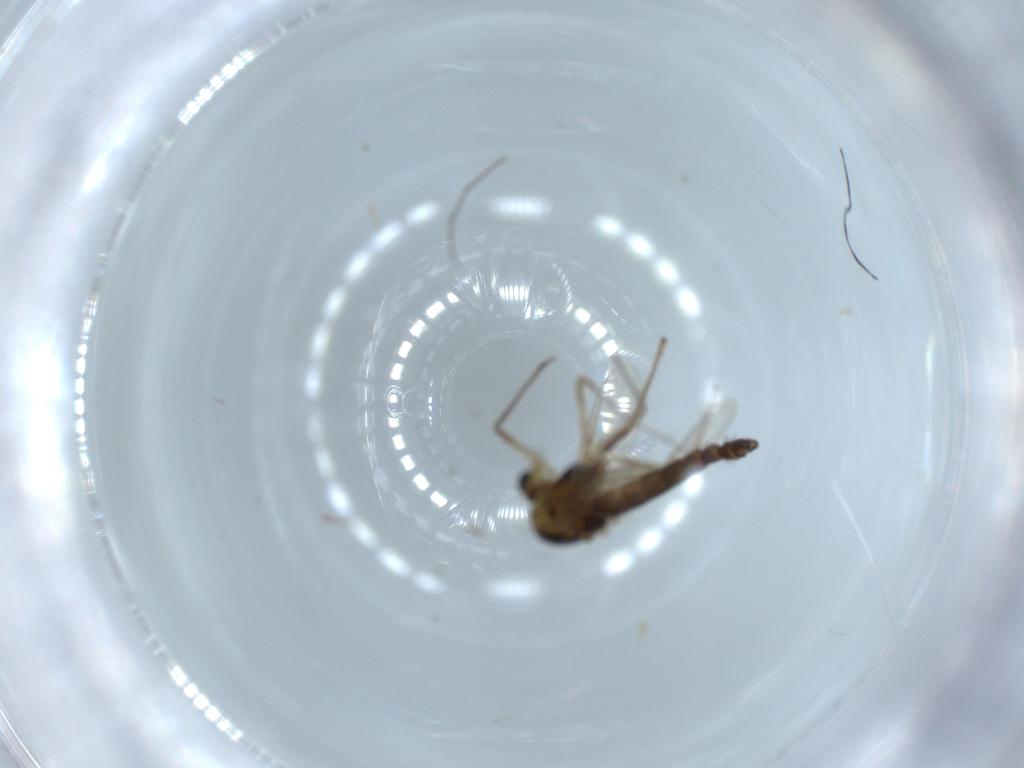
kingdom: Animalia
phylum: Arthropoda
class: Insecta
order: Diptera
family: Chironomidae
